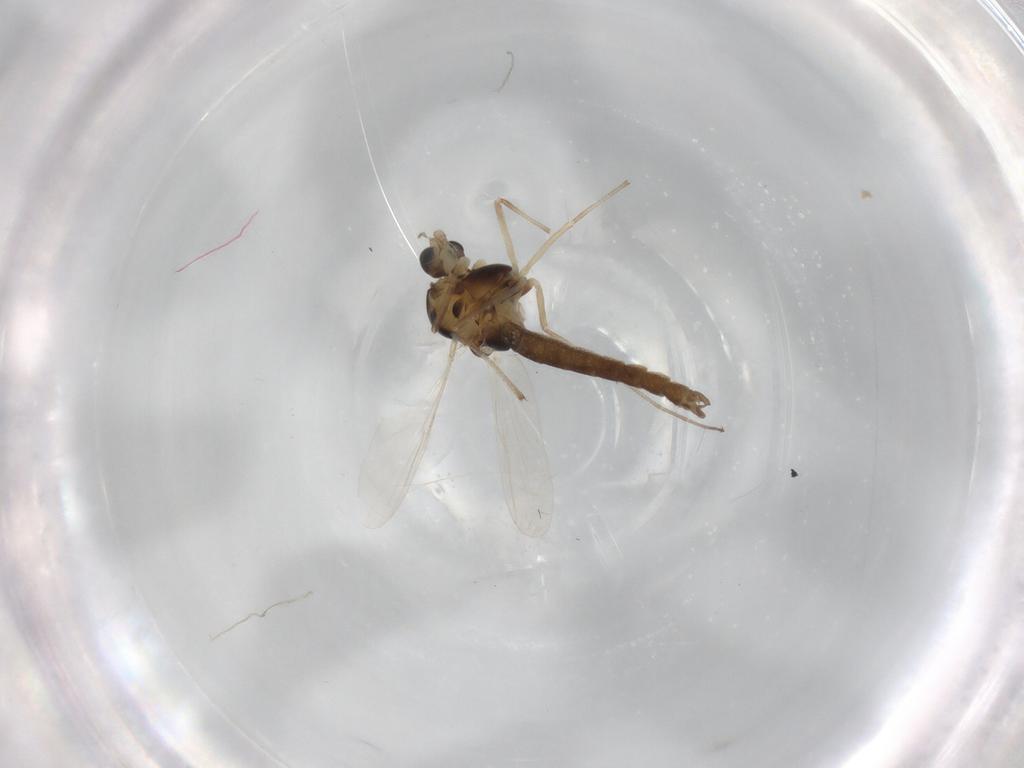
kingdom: Animalia
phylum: Arthropoda
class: Insecta
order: Diptera
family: Chironomidae
